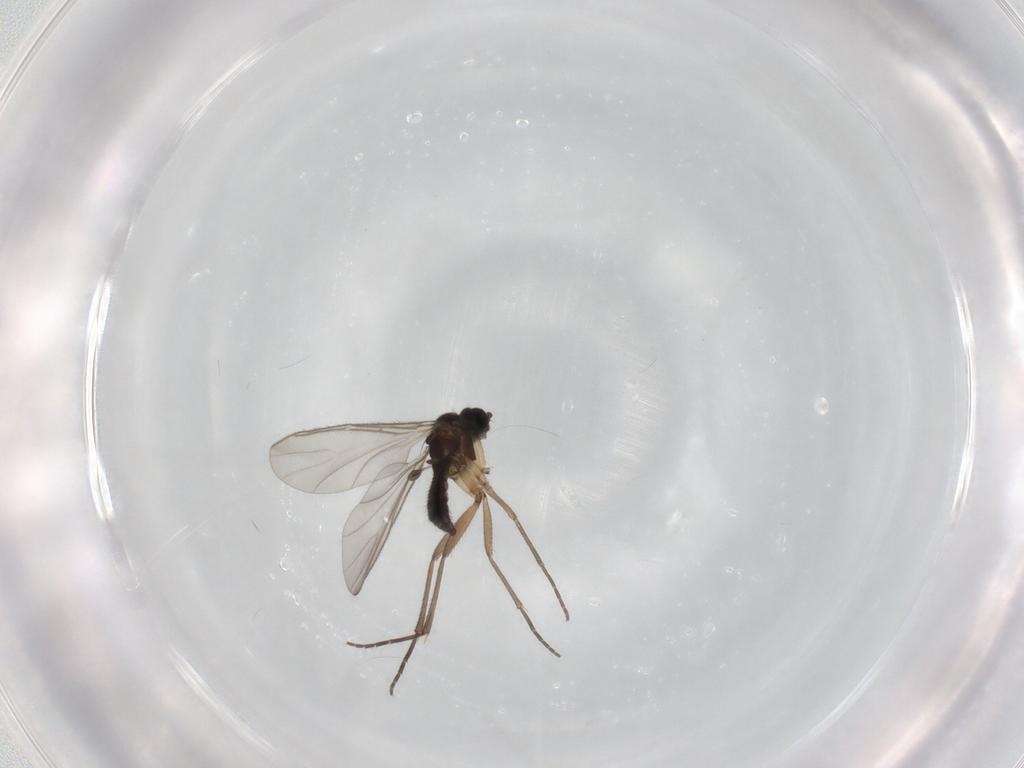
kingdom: Animalia
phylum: Arthropoda
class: Insecta
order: Diptera
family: Sciaridae
